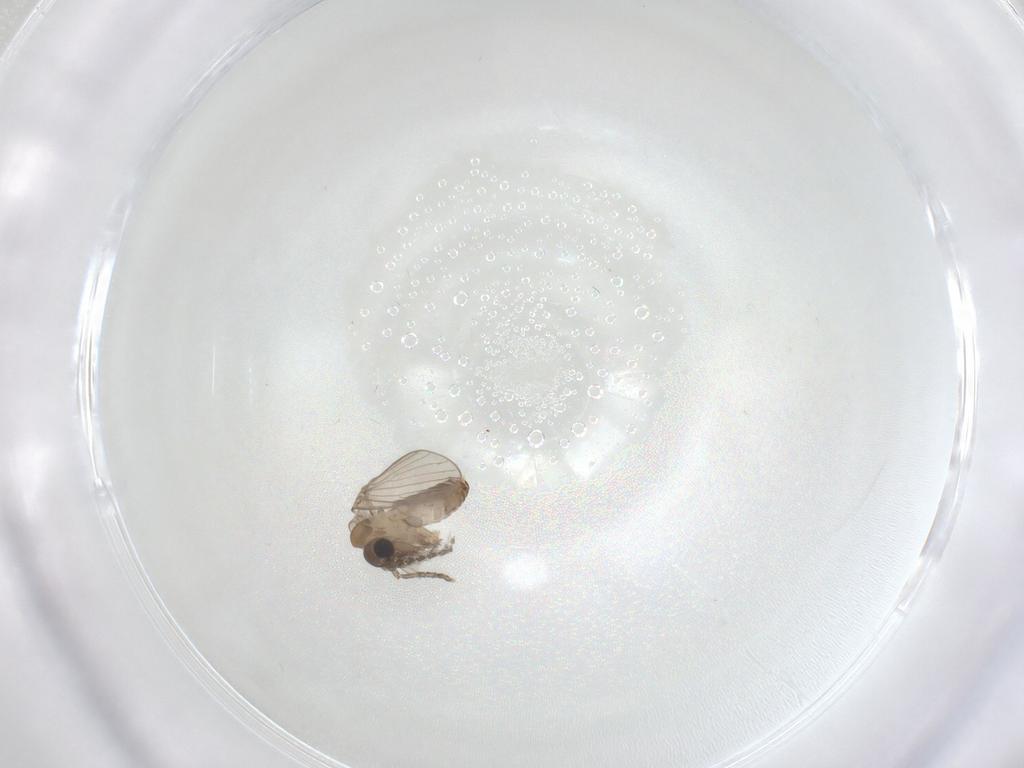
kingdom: Animalia
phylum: Arthropoda
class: Insecta
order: Diptera
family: Psychodidae
